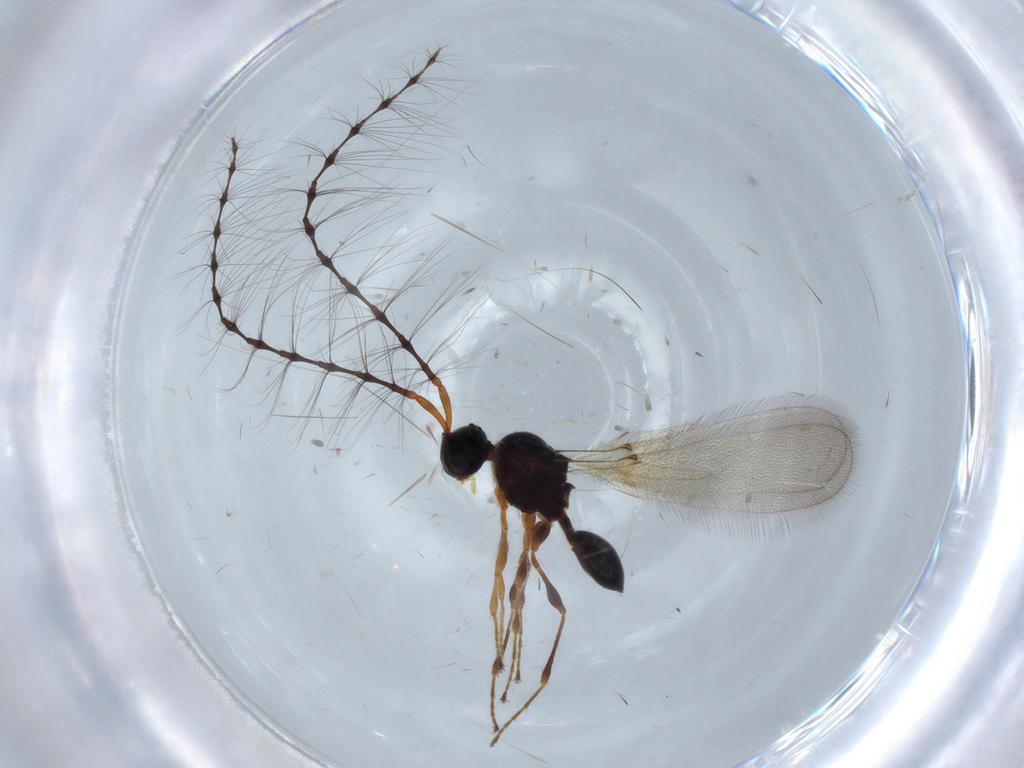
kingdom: Animalia
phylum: Arthropoda
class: Insecta
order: Hymenoptera
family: Diapriidae
